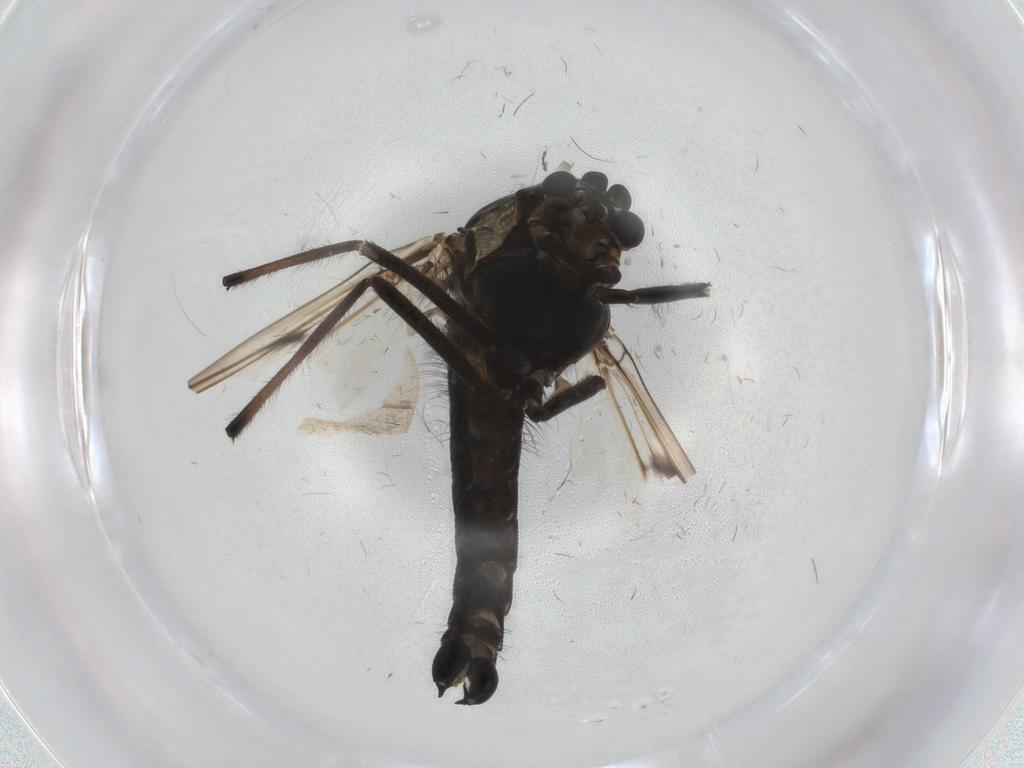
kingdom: Animalia
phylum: Arthropoda
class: Insecta
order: Diptera
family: Chironomidae
